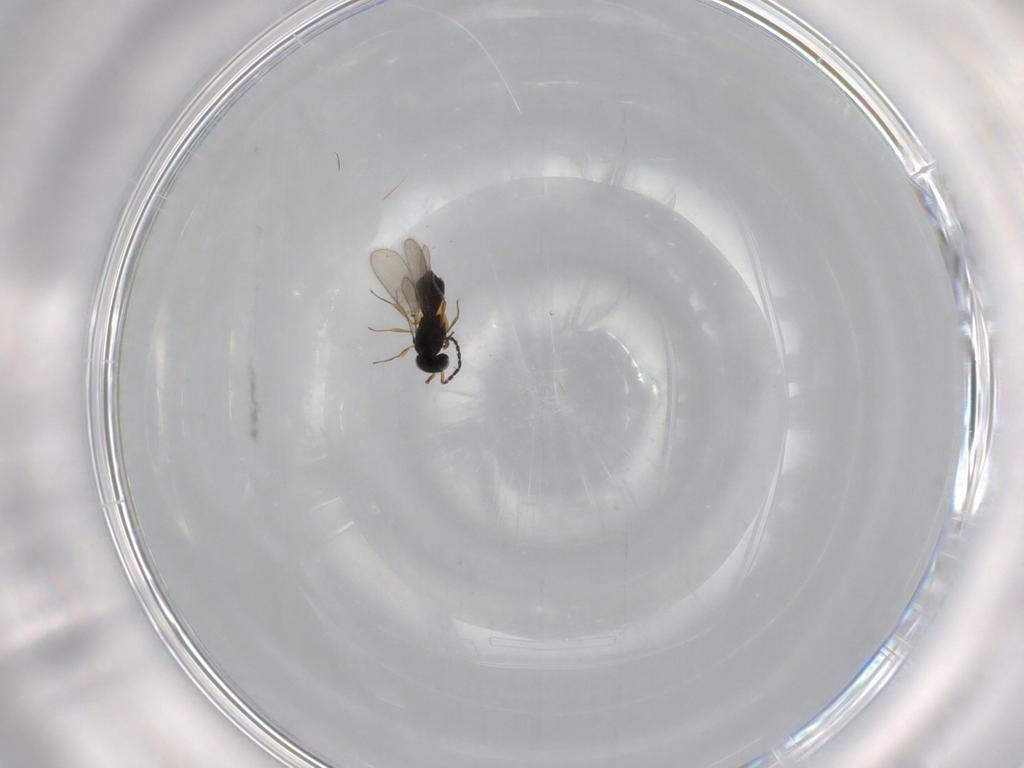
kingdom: Animalia
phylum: Arthropoda
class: Insecta
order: Hymenoptera
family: Scelionidae
